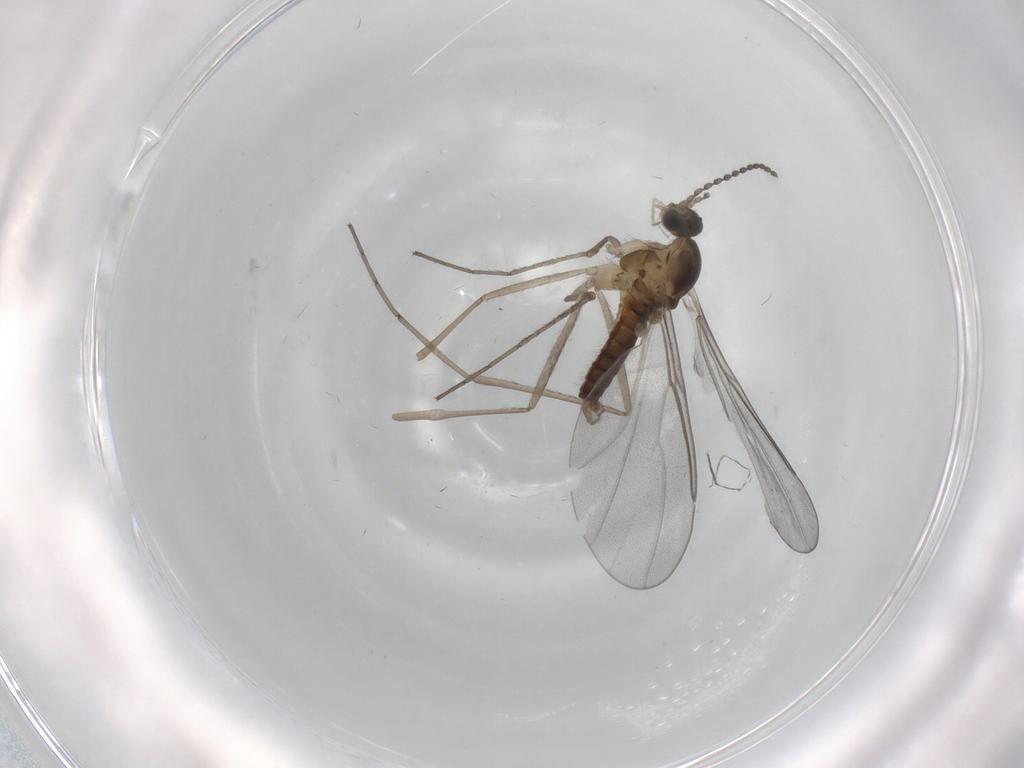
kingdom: Animalia
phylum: Arthropoda
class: Insecta
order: Diptera
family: Cecidomyiidae
